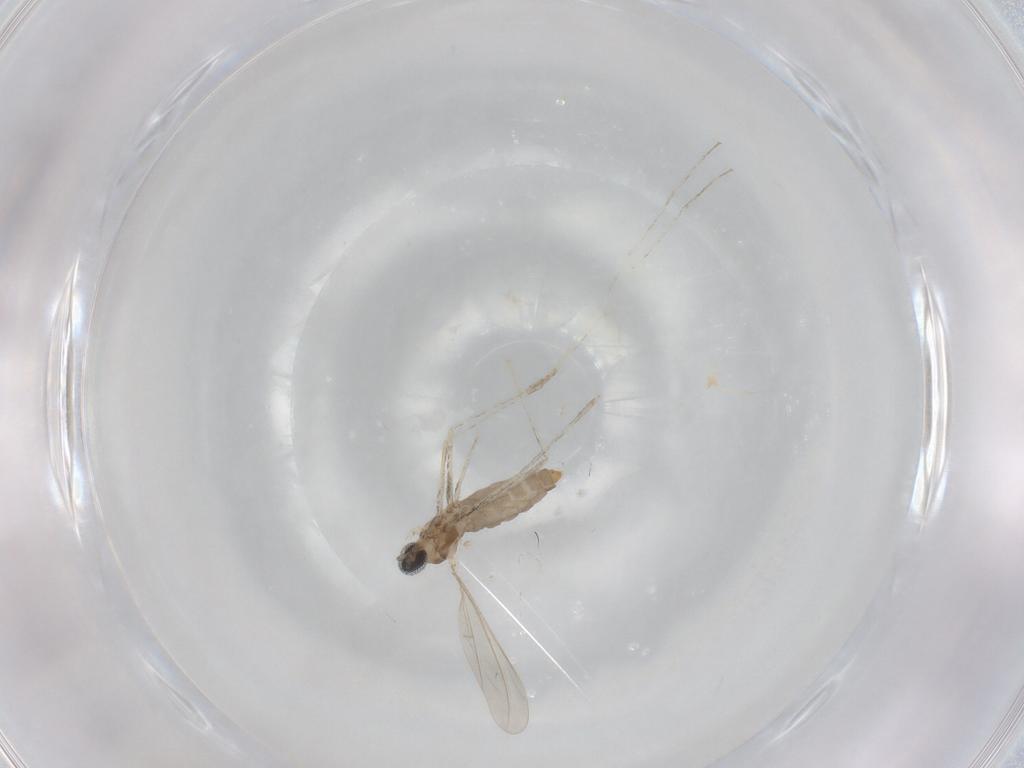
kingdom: Animalia
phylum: Arthropoda
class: Insecta
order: Diptera
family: Cecidomyiidae
